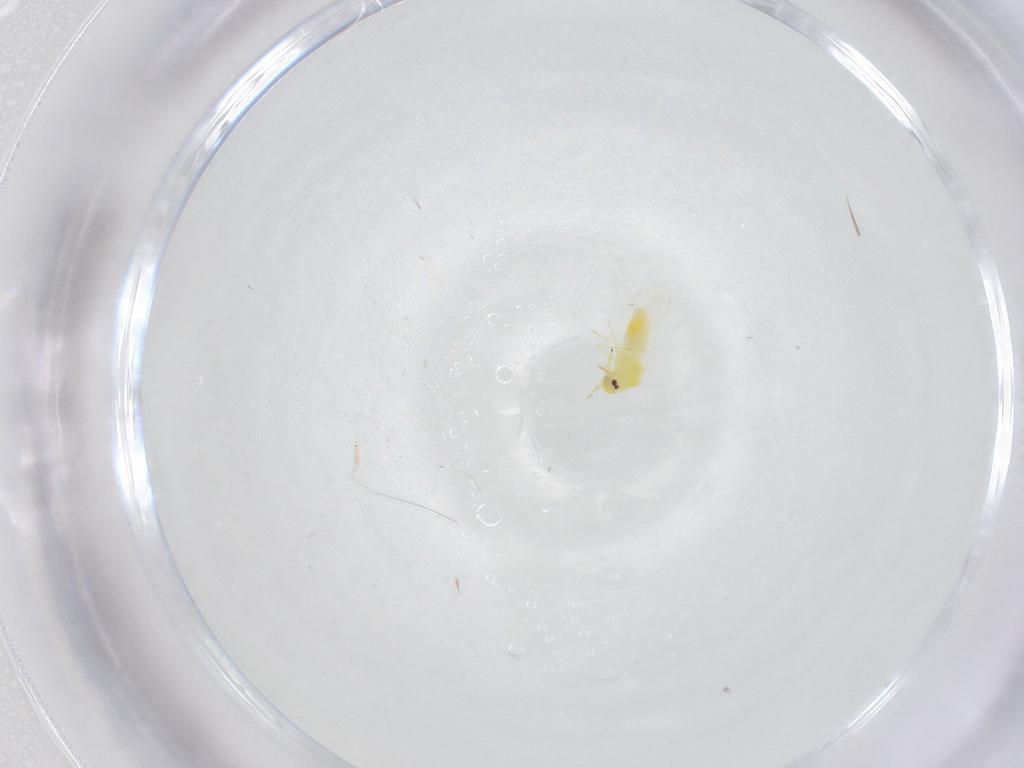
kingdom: Animalia
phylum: Arthropoda
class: Insecta
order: Hemiptera
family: Aleyrodidae
